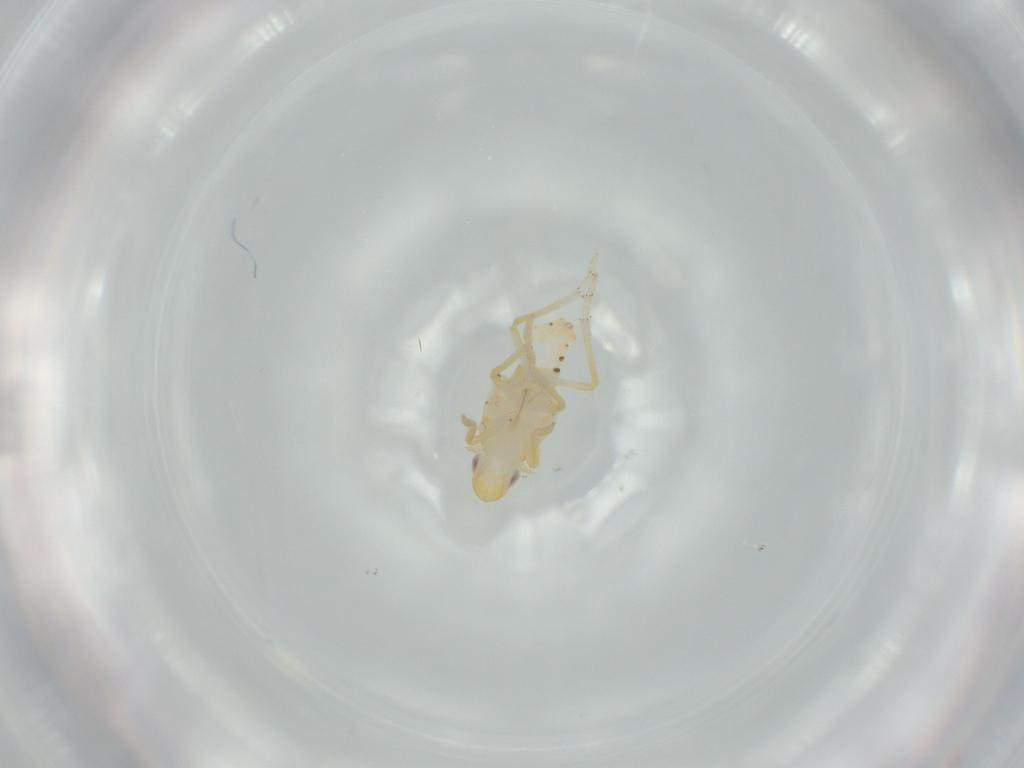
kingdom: Animalia
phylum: Arthropoda
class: Insecta
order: Hemiptera
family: Tropiduchidae
